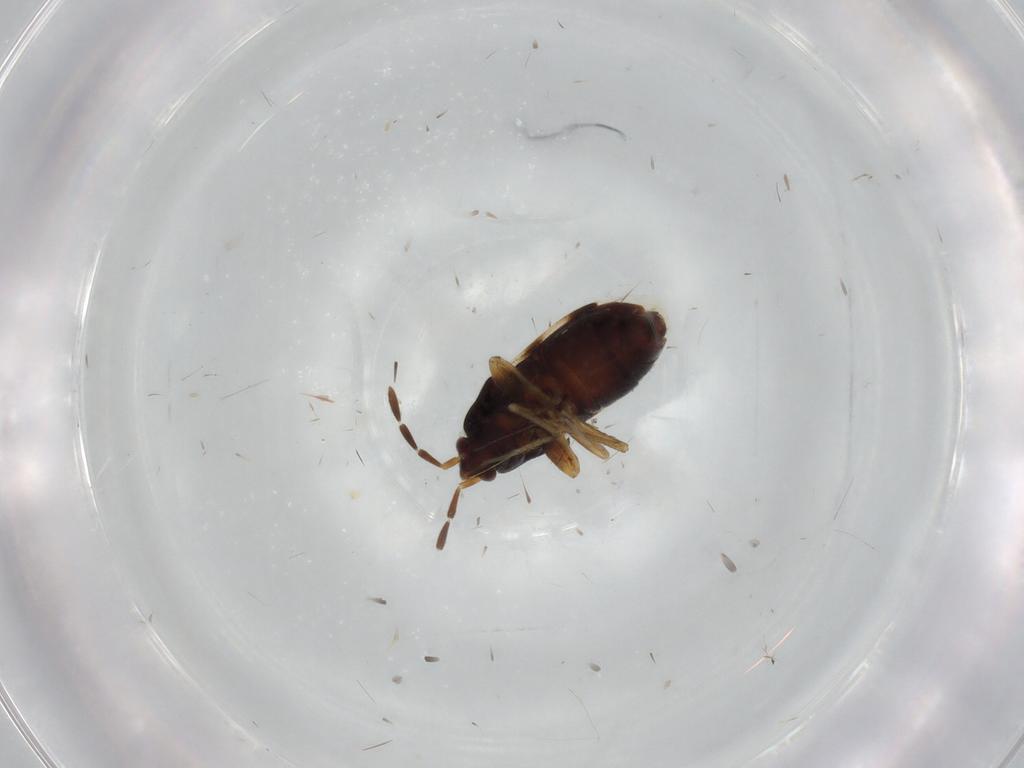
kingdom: Animalia
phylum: Arthropoda
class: Insecta
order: Hemiptera
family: Rhyparochromidae
